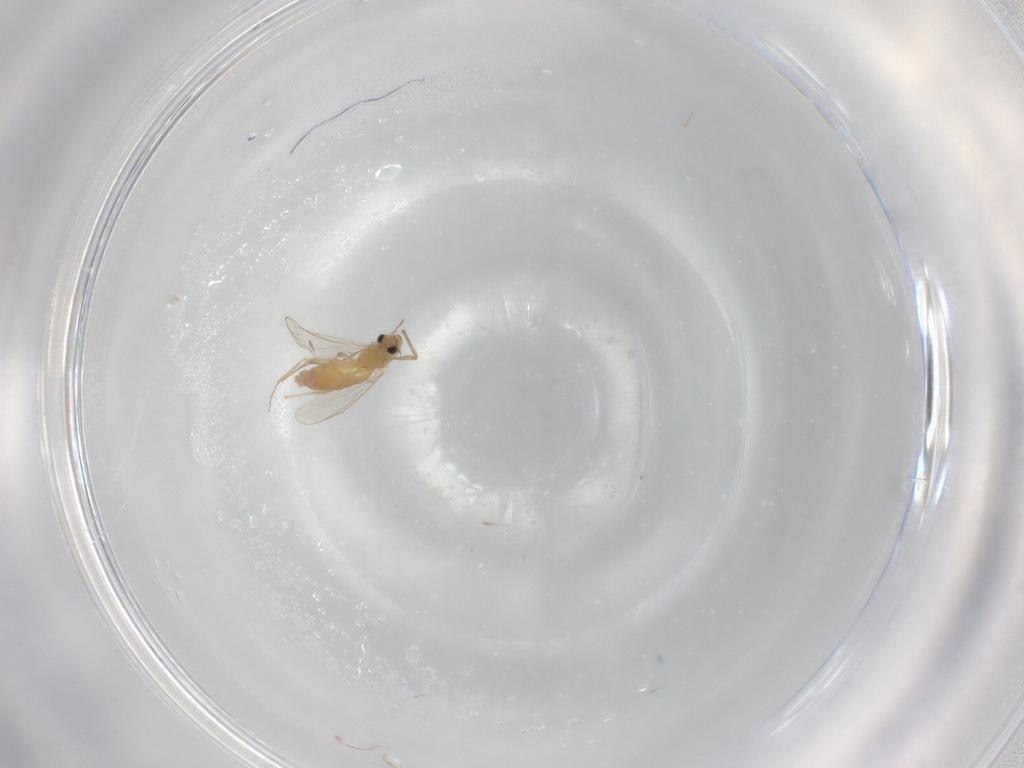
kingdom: Animalia
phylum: Arthropoda
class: Insecta
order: Diptera
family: Chironomidae
